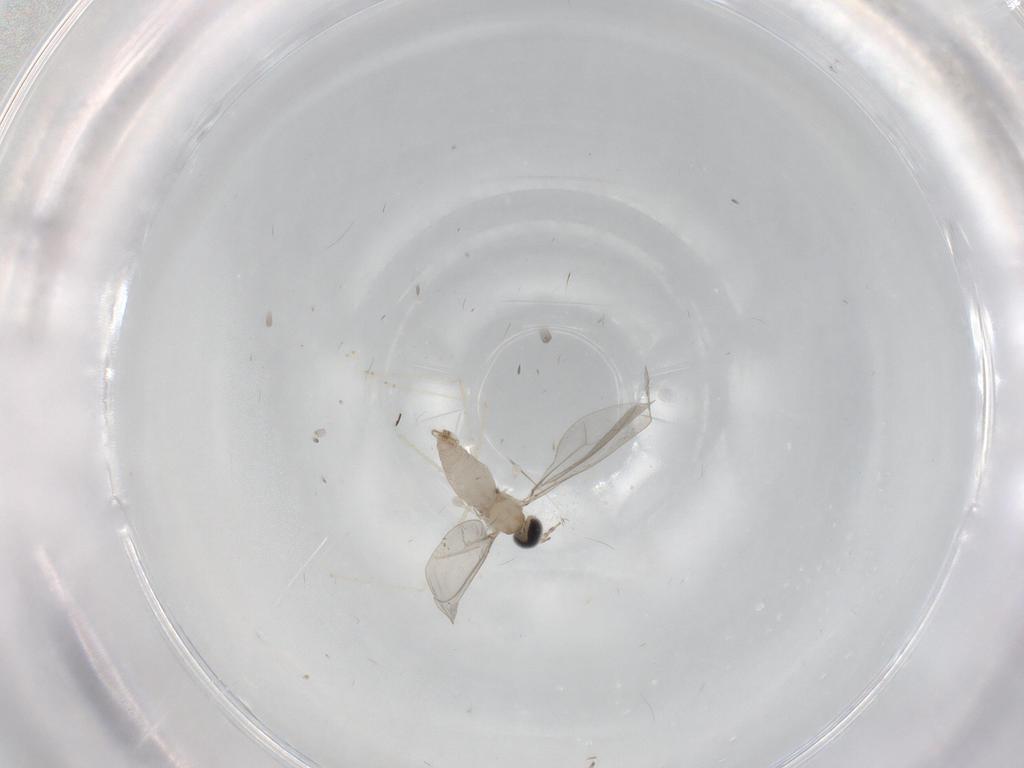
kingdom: Animalia
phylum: Arthropoda
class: Insecta
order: Diptera
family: Cecidomyiidae
